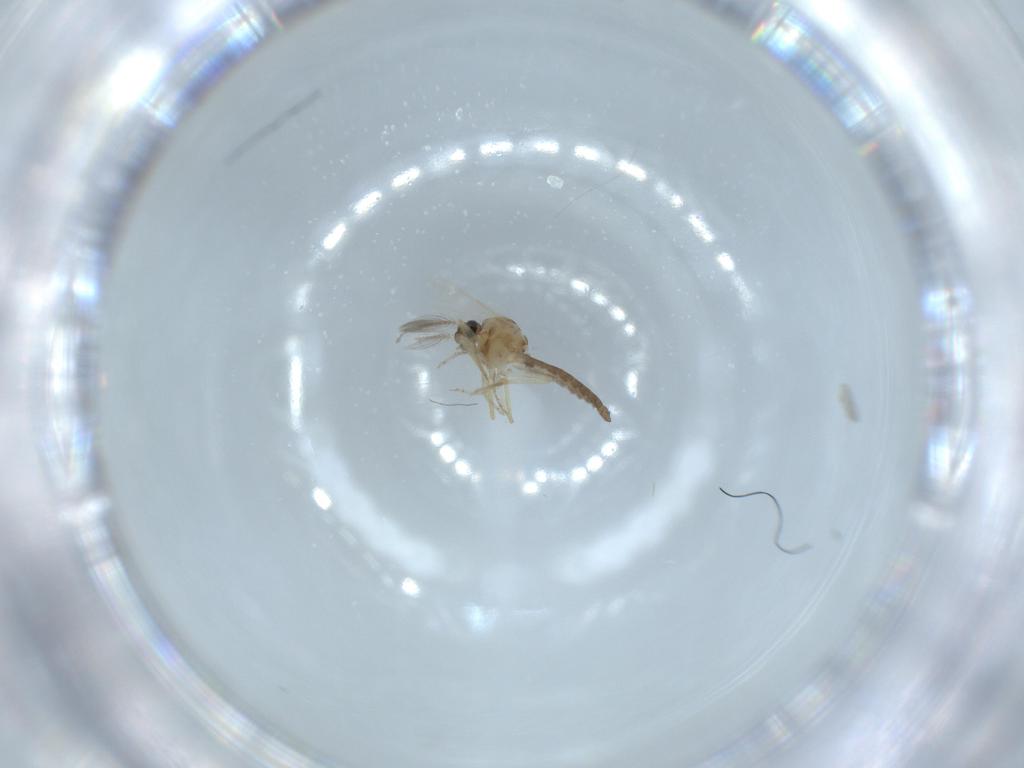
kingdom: Animalia
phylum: Arthropoda
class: Insecta
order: Diptera
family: Ceratopogonidae
